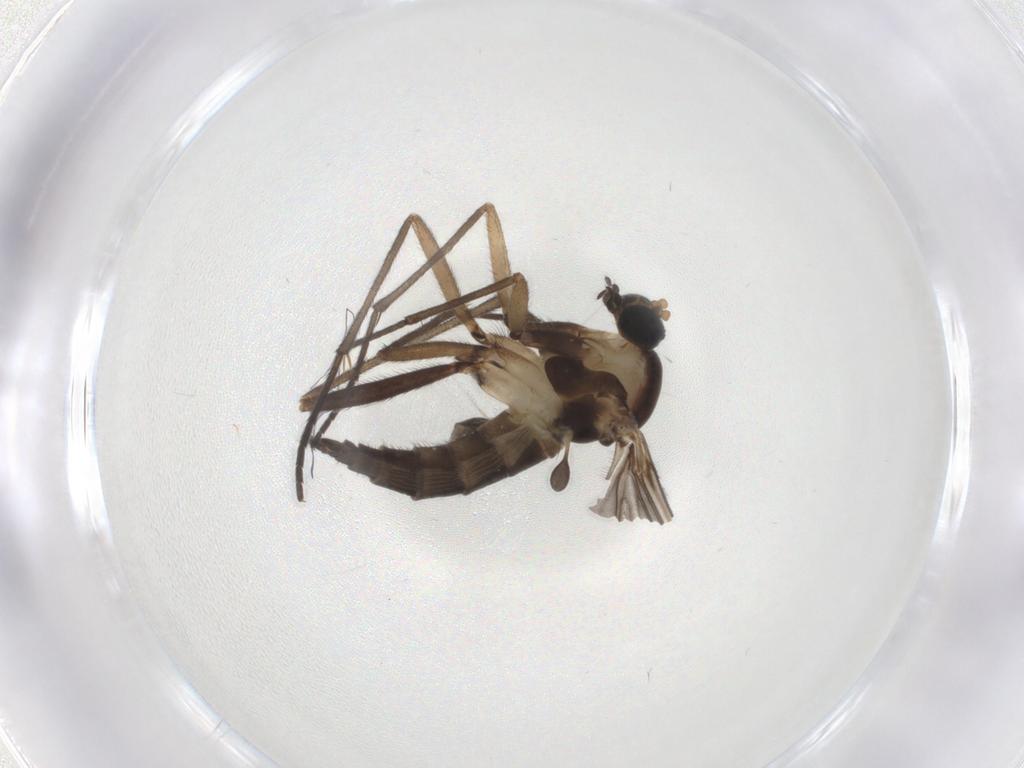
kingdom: Animalia
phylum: Arthropoda
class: Insecta
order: Diptera
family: Sciaridae
